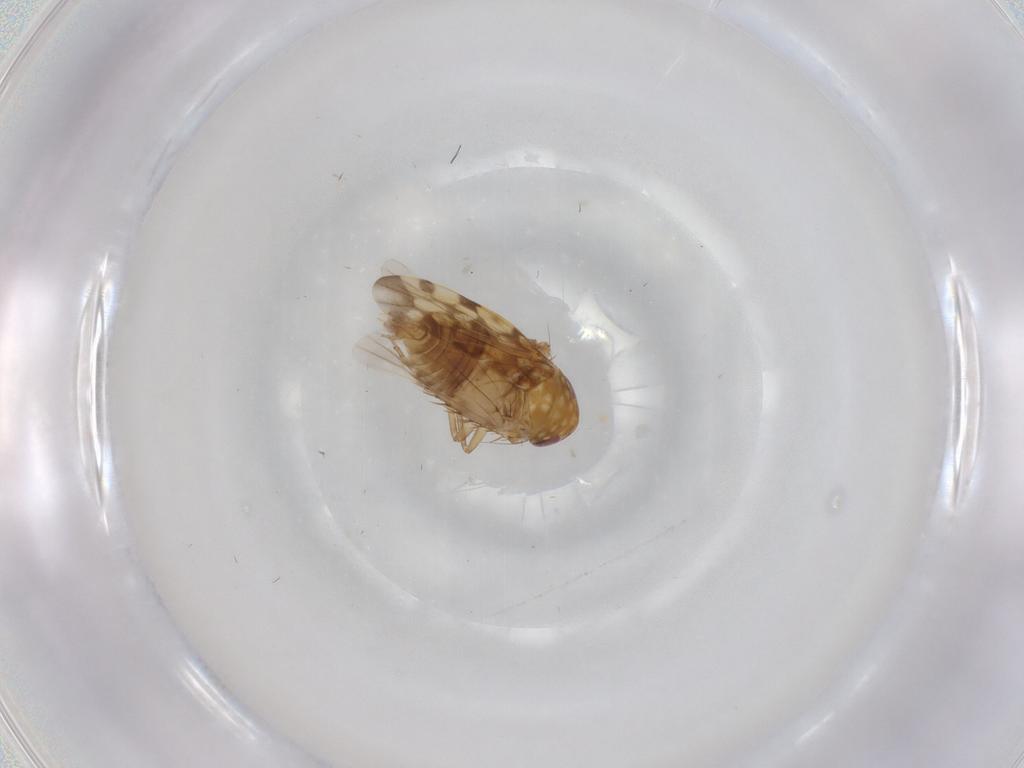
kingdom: Animalia
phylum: Arthropoda
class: Insecta
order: Hemiptera
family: Cicadellidae
